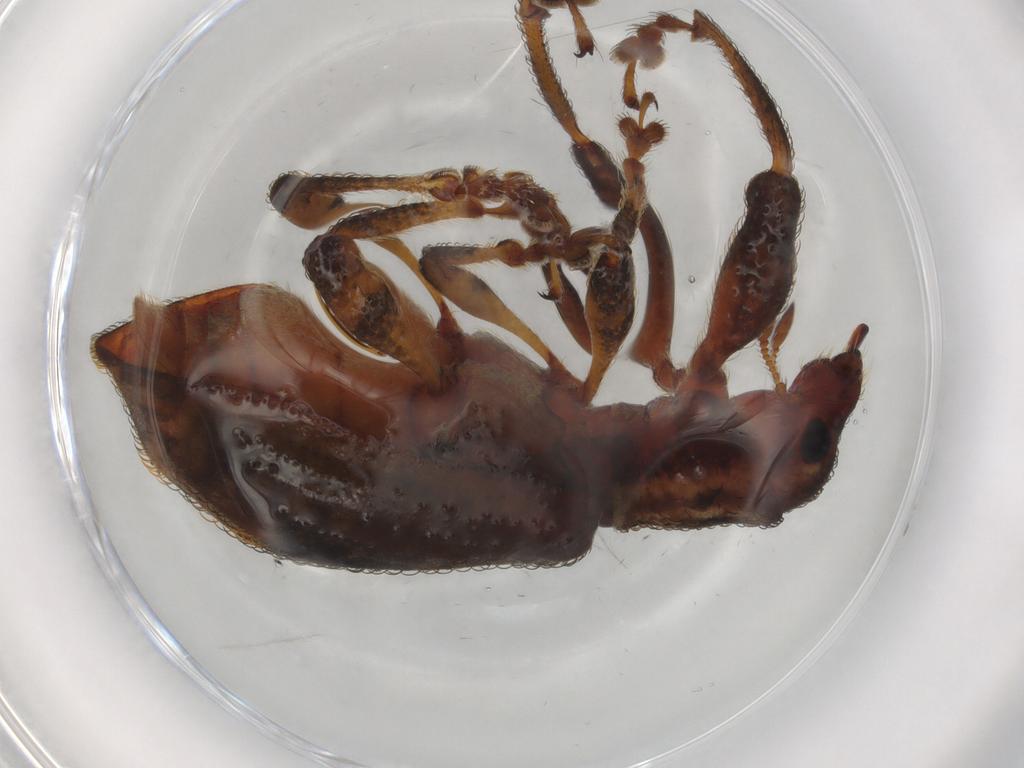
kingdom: Animalia
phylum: Arthropoda
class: Insecta
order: Coleoptera
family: Curculionidae
